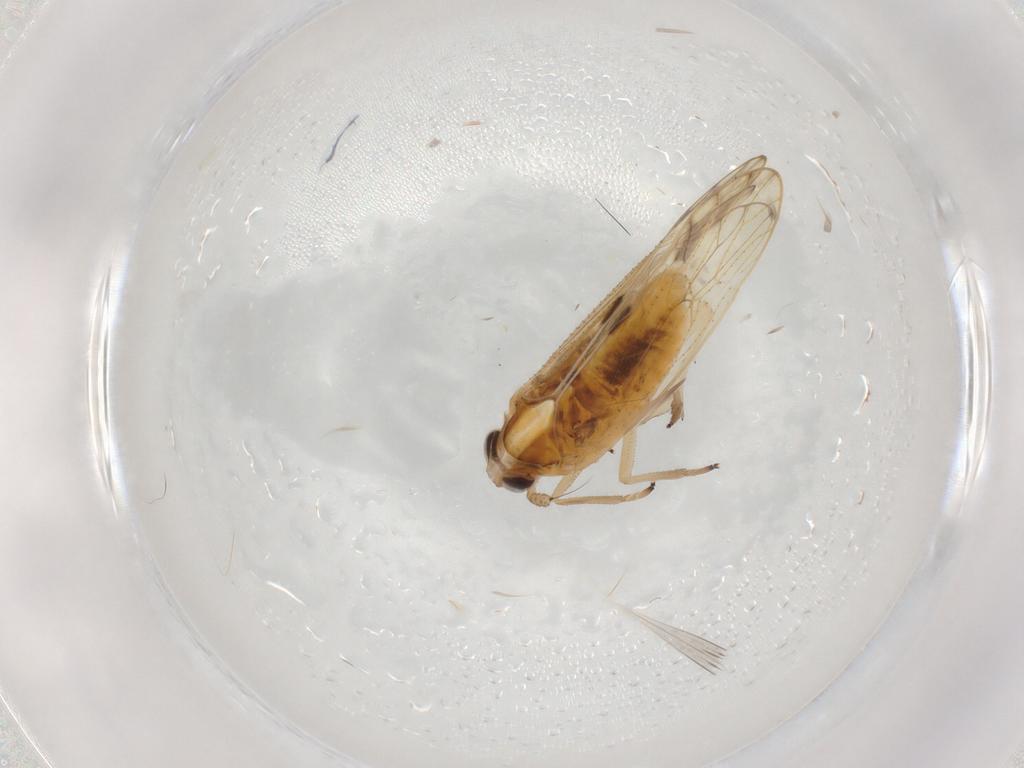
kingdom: Animalia
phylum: Arthropoda
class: Insecta
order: Hemiptera
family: Delphacidae
